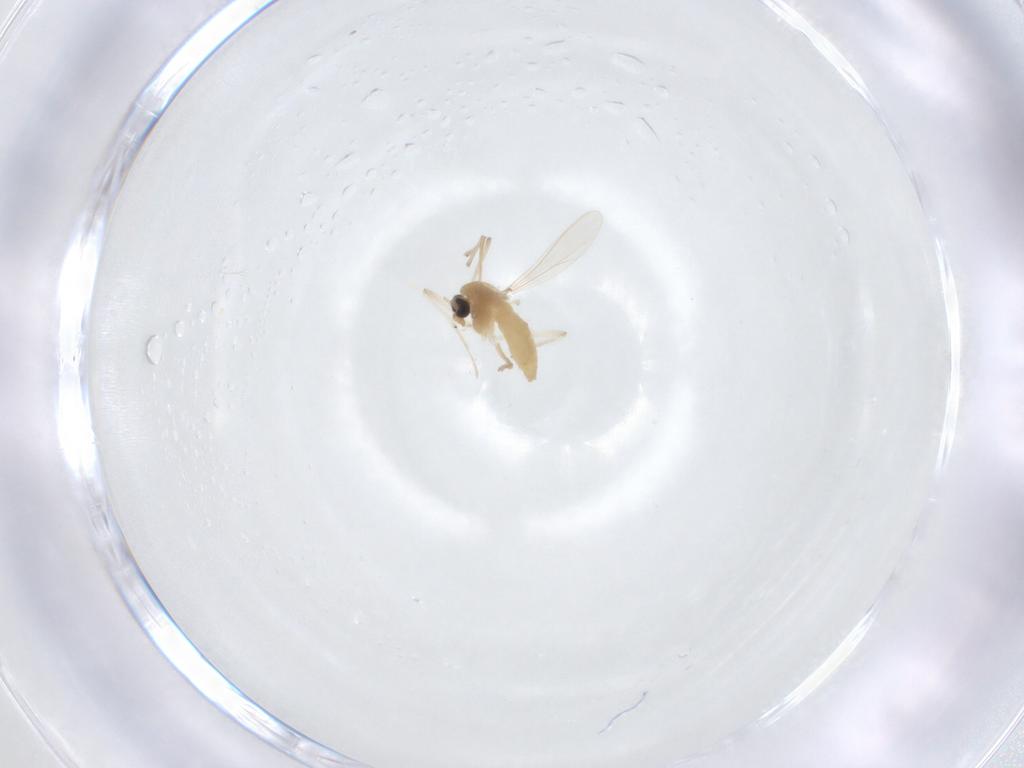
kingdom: Animalia
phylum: Arthropoda
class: Insecta
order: Diptera
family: Chironomidae
